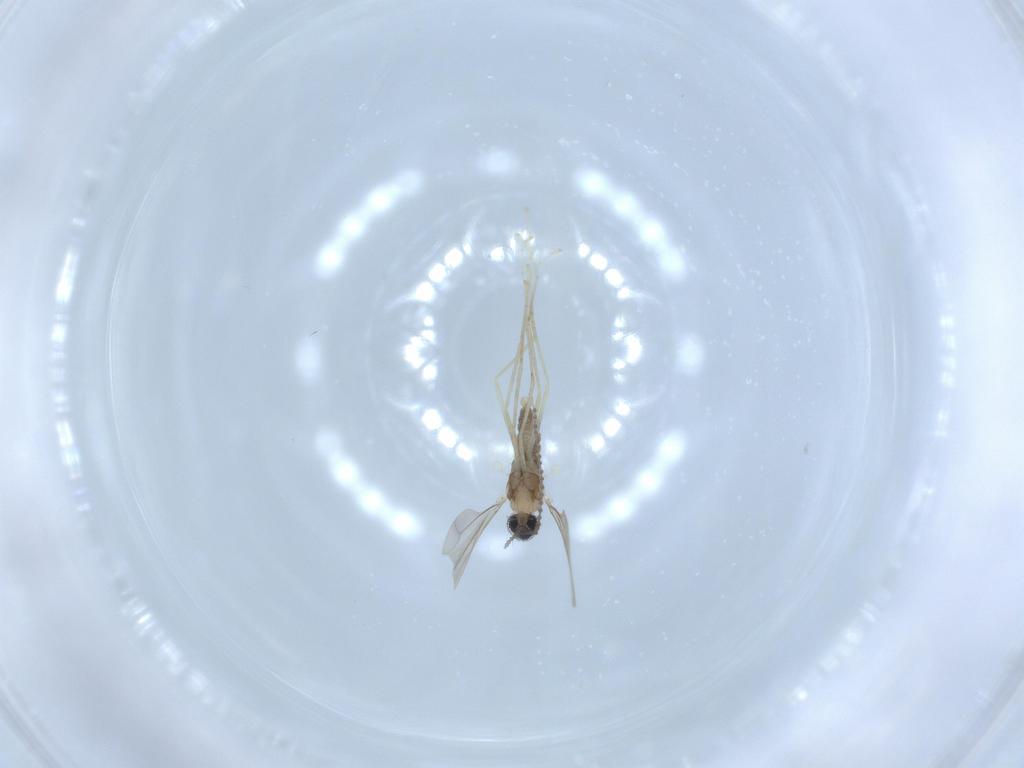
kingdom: Animalia
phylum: Arthropoda
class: Insecta
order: Diptera
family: Cecidomyiidae
